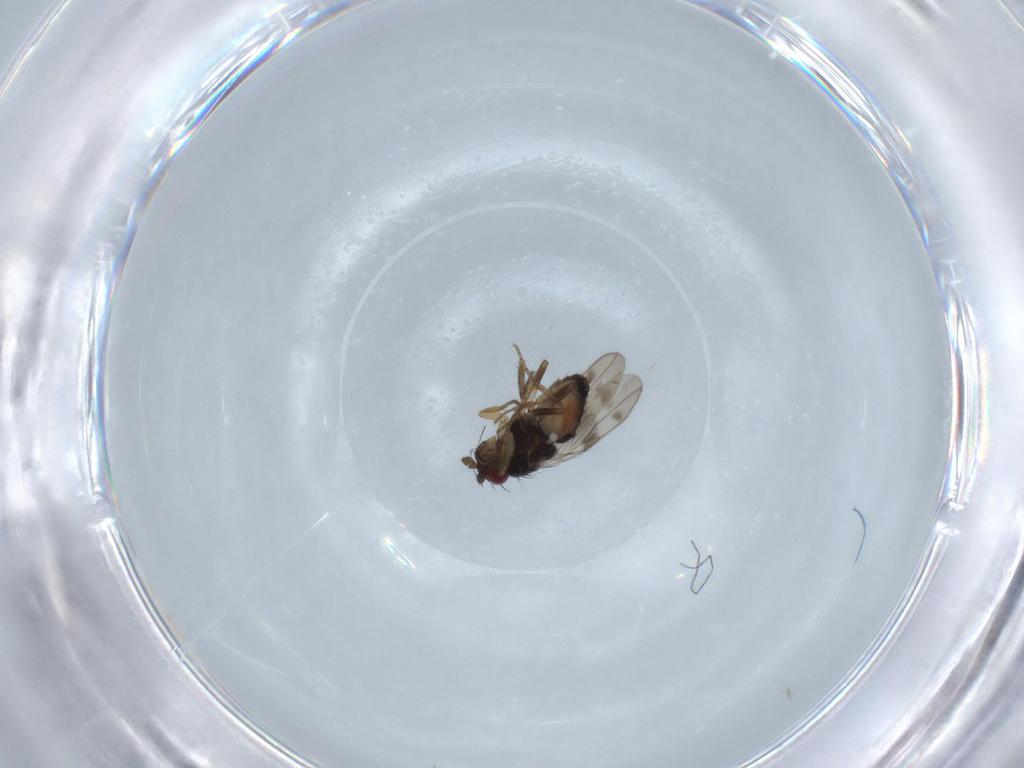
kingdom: Animalia
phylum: Arthropoda
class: Insecta
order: Diptera
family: Sphaeroceridae
